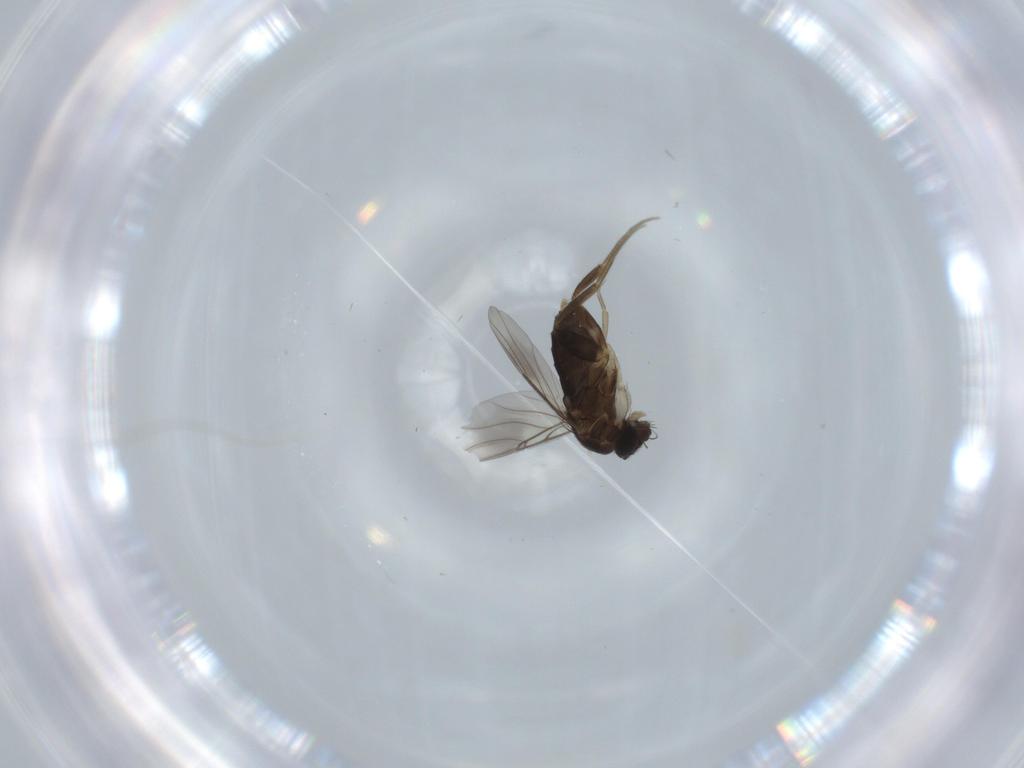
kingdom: Animalia
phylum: Arthropoda
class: Insecta
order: Diptera
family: Phoridae
